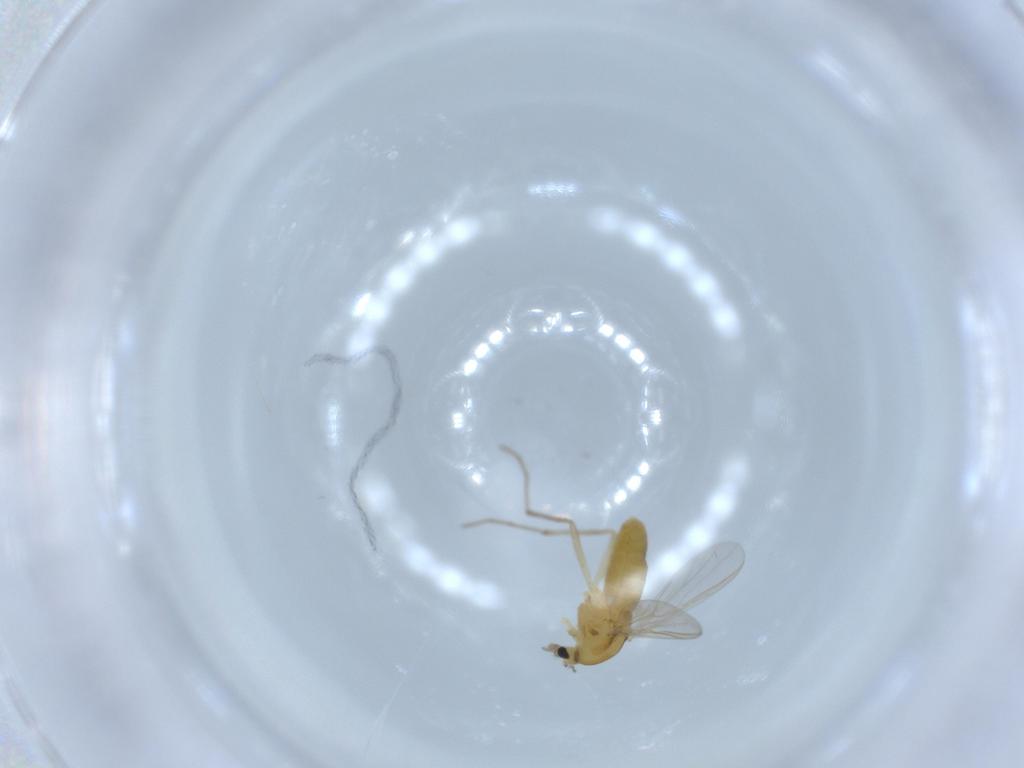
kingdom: Animalia
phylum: Arthropoda
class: Insecta
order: Diptera
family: Chironomidae
